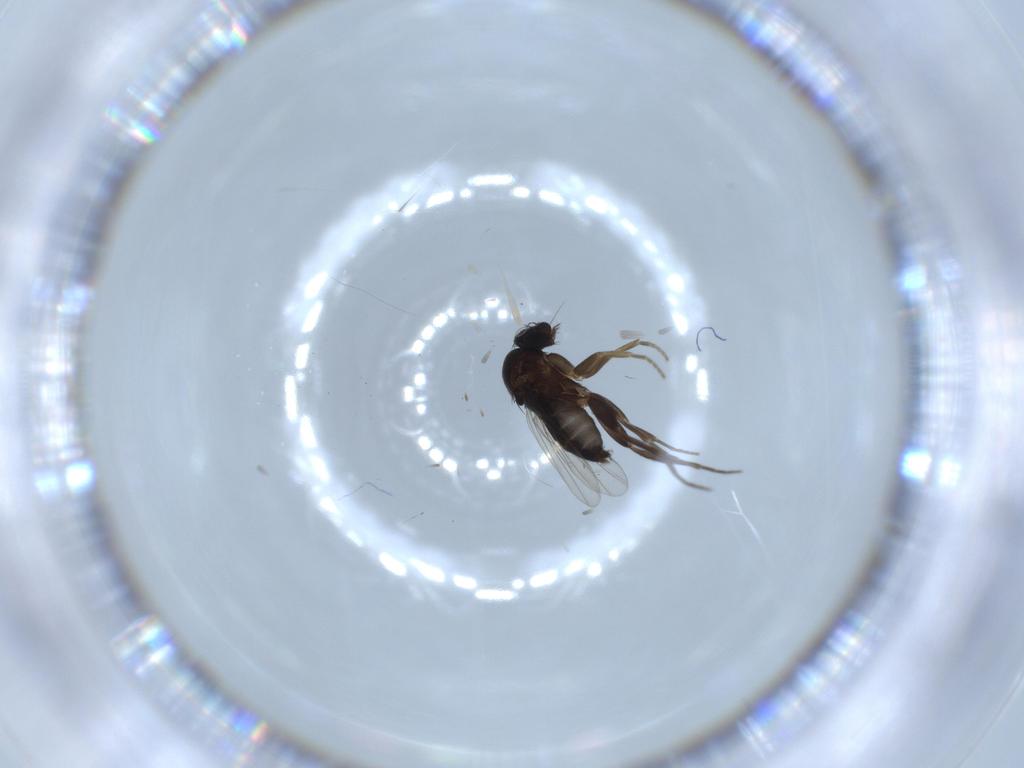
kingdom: Animalia
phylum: Arthropoda
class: Insecta
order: Diptera
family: Phoridae
